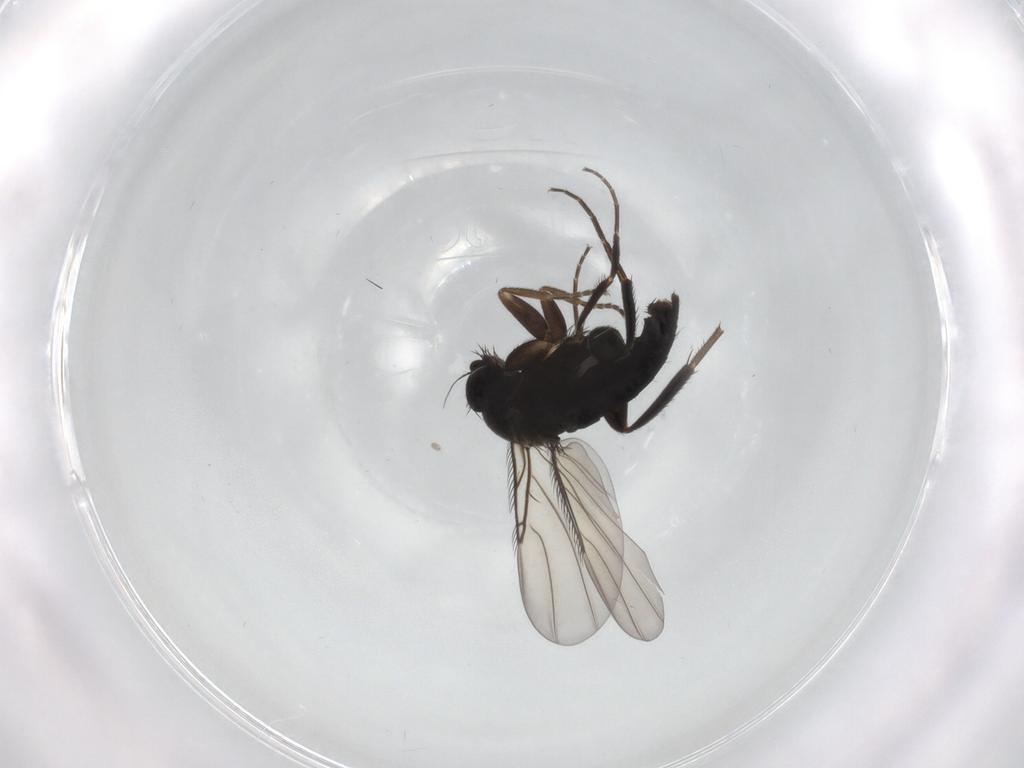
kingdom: Animalia
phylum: Arthropoda
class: Insecta
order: Diptera
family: Phoridae
